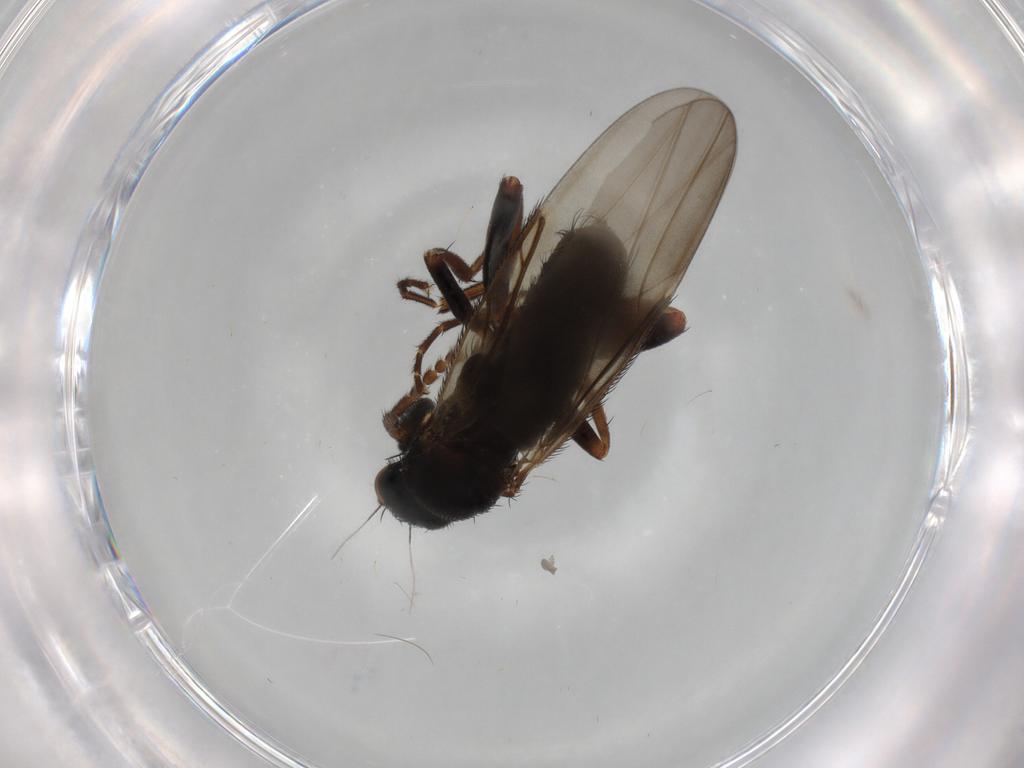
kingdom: Animalia
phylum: Arthropoda
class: Insecta
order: Diptera
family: Phoridae
